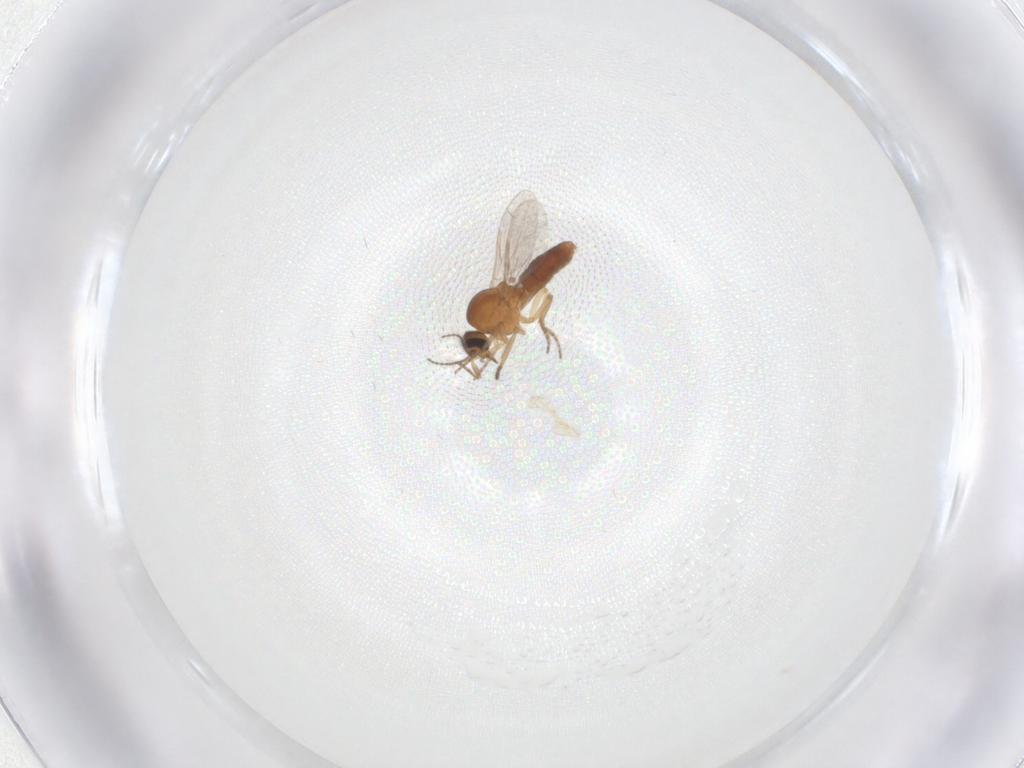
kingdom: Animalia
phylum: Arthropoda
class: Insecta
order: Diptera
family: Ceratopogonidae
